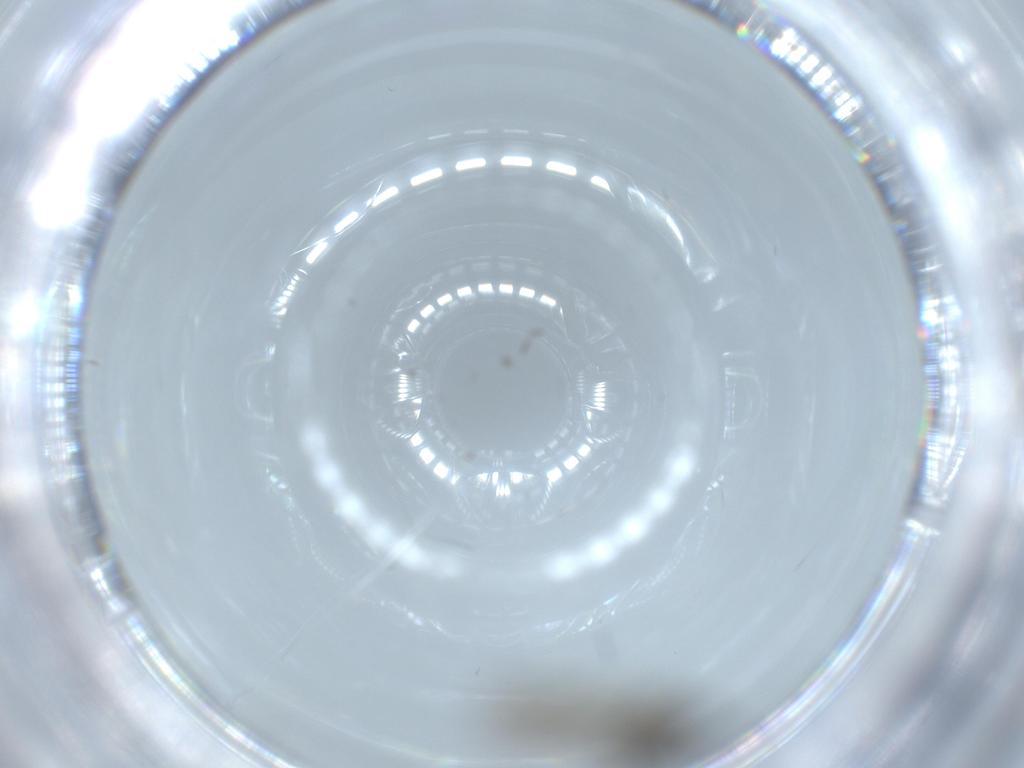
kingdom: Animalia
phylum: Arthropoda
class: Insecta
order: Diptera
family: Sciaridae
